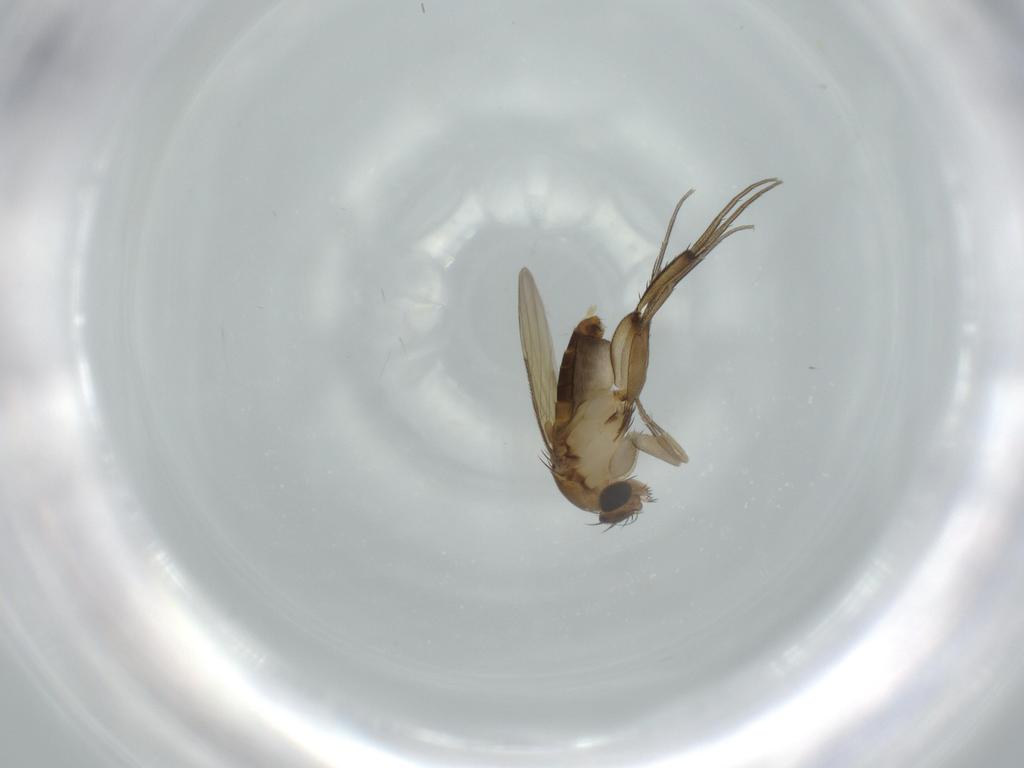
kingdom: Animalia
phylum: Arthropoda
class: Insecta
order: Diptera
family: Phoridae
